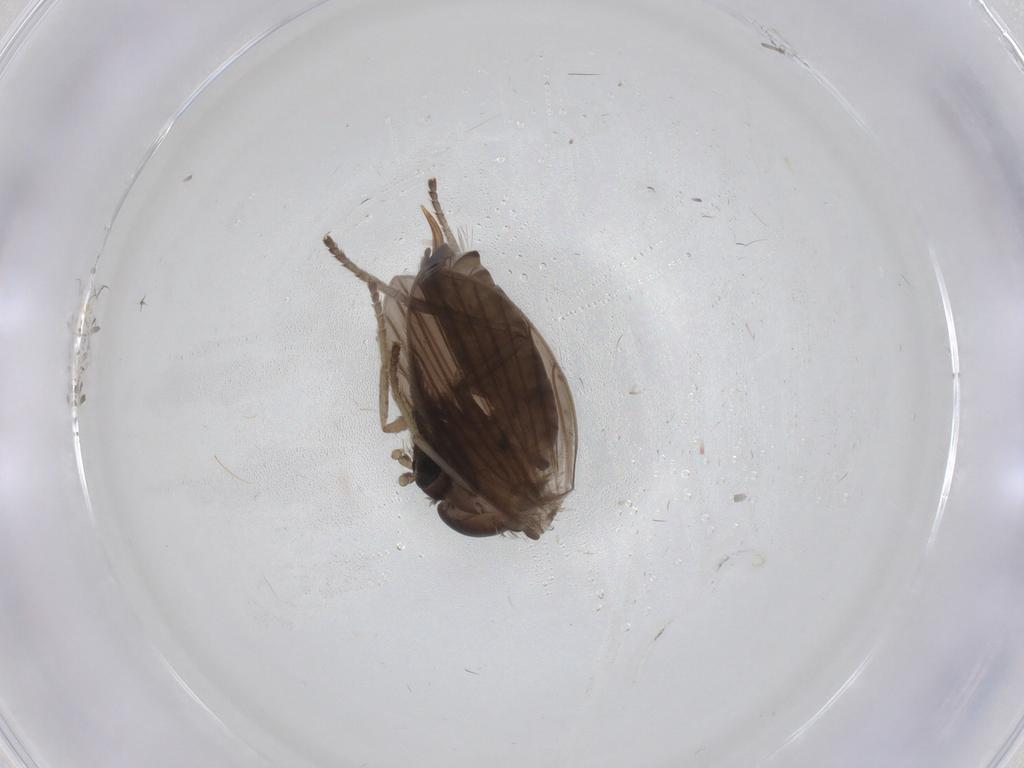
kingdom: Animalia
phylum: Arthropoda
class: Insecta
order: Diptera
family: Psychodidae
